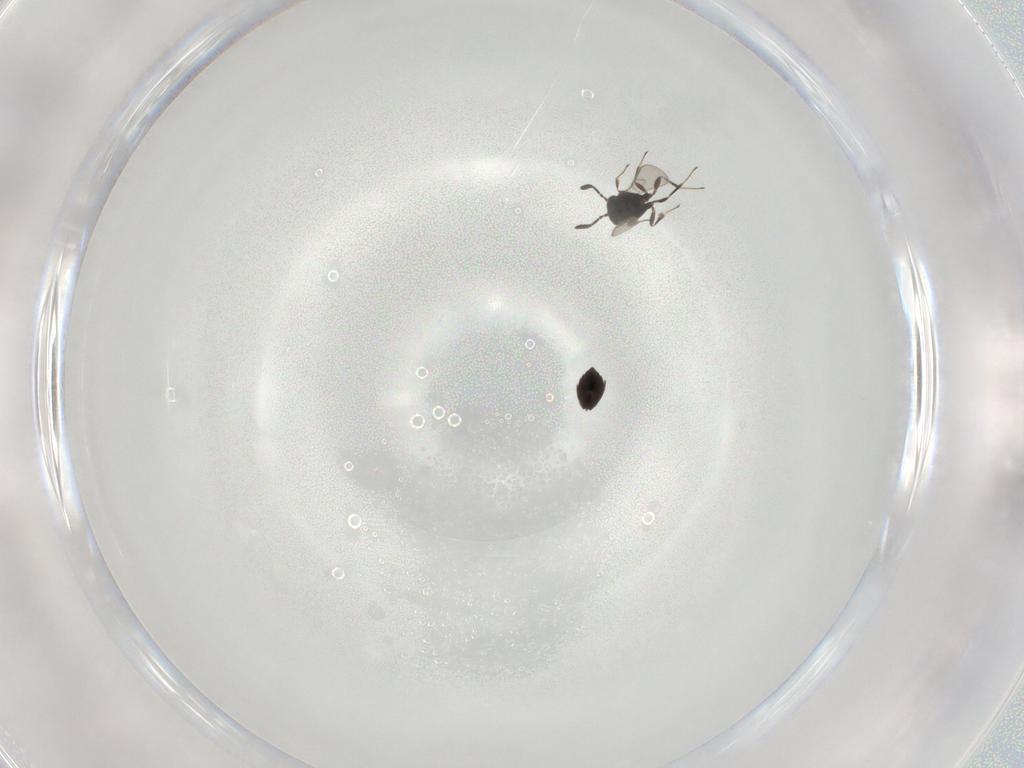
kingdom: Animalia
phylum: Arthropoda
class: Insecta
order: Hymenoptera
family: Scelionidae
